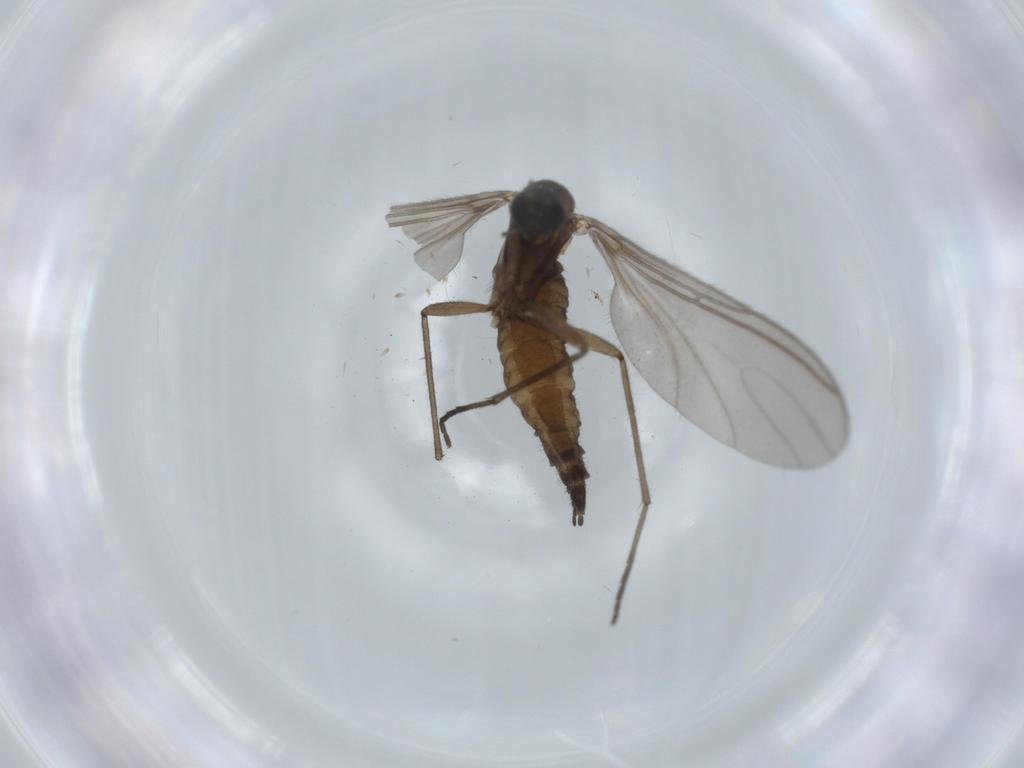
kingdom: Animalia
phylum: Arthropoda
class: Insecta
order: Diptera
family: Sciaridae
